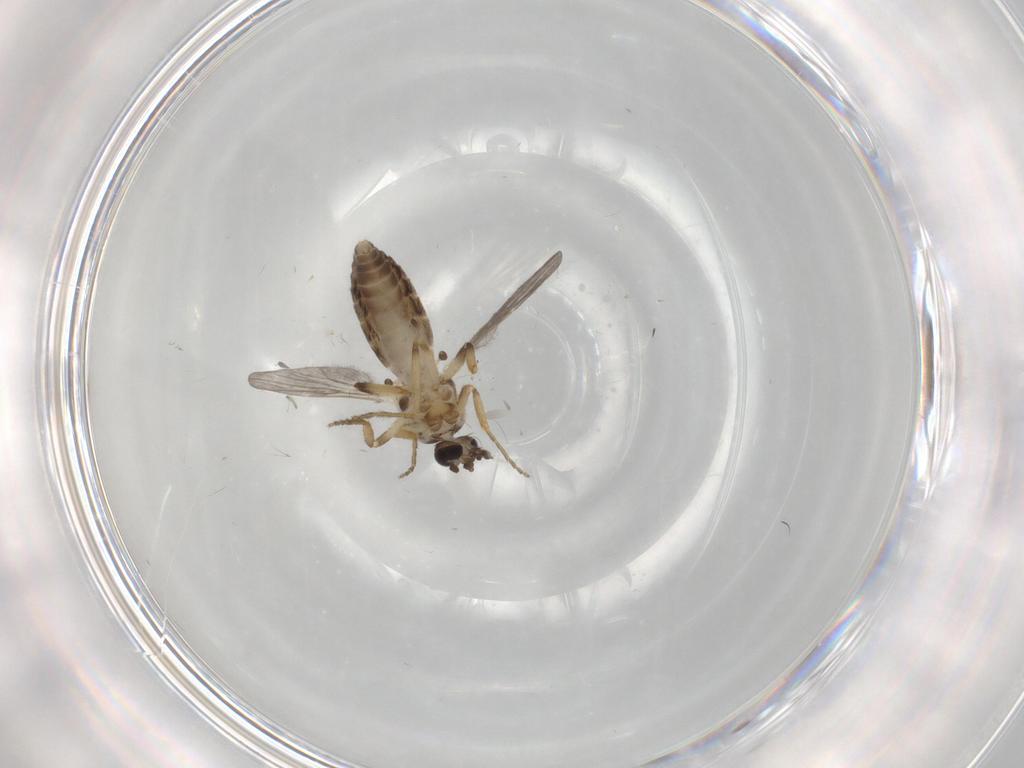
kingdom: Animalia
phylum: Arthropoda
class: Insecta
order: Diptera
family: Ceratopogonidae
